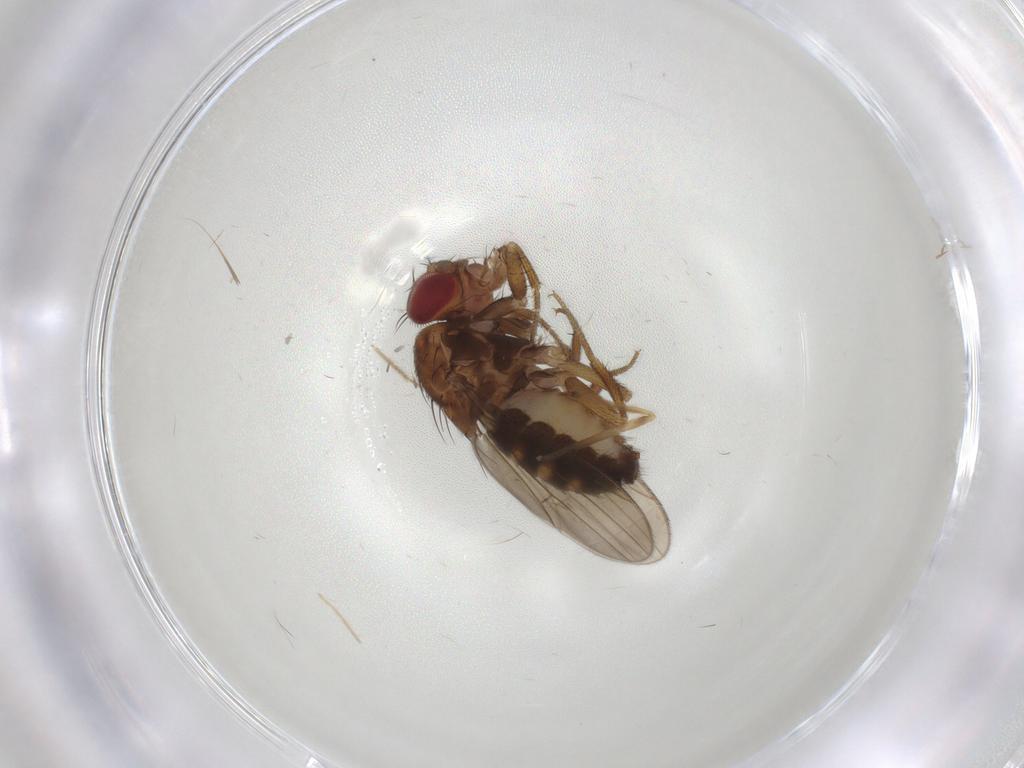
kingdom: Animalia
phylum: Arthropoda
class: Insecta
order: Diptera
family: Drosophilidae
